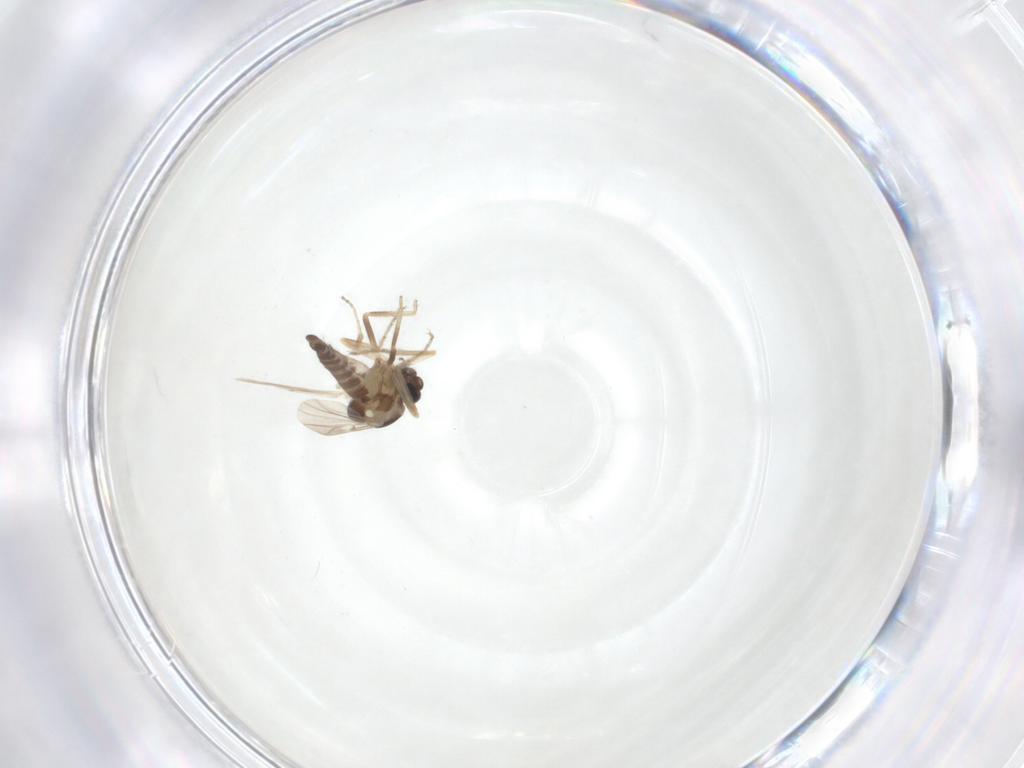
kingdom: Animalia
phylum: Arthropoda
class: Insecta
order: Diptera
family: Ceratopogonidae
